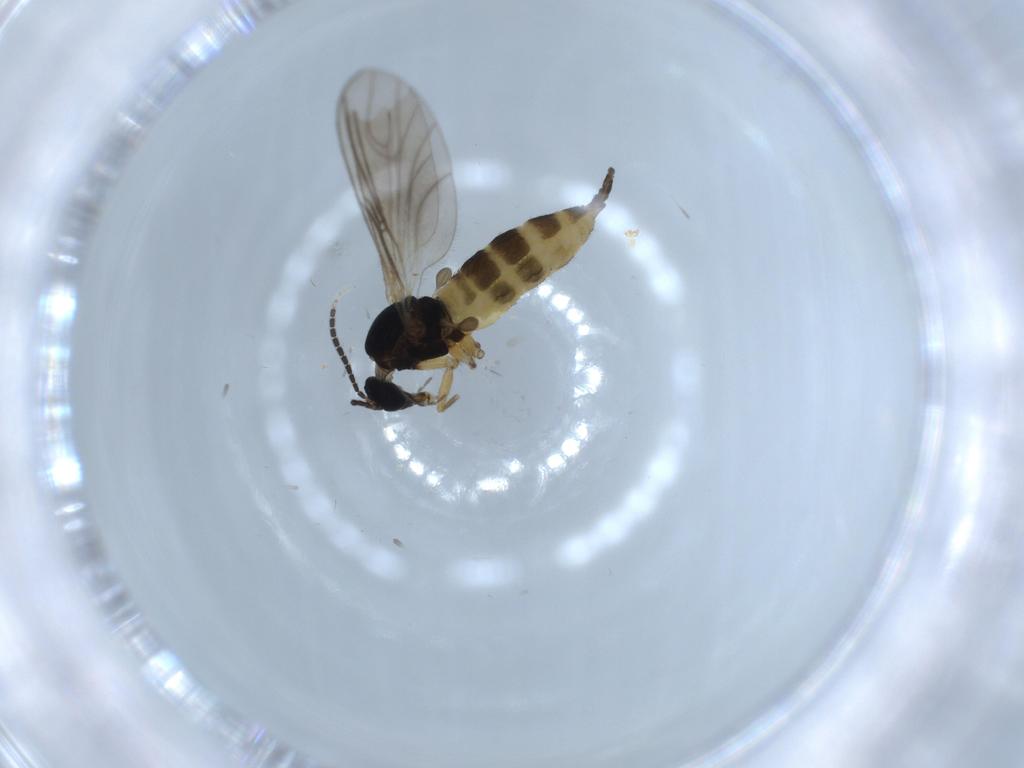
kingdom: Animalia
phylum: Arthropoda
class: Insecta
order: Diptera
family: Sciaridae
